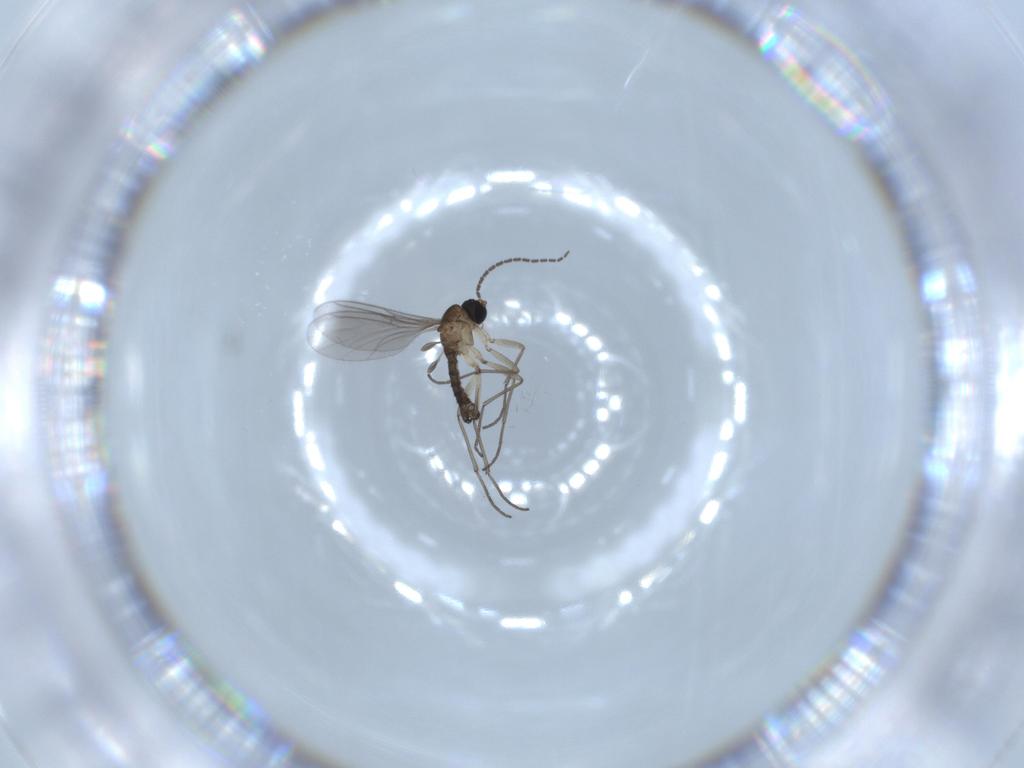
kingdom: Animalia
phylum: Arthropoda
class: Insecta
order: Diptera
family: Sciaridae
